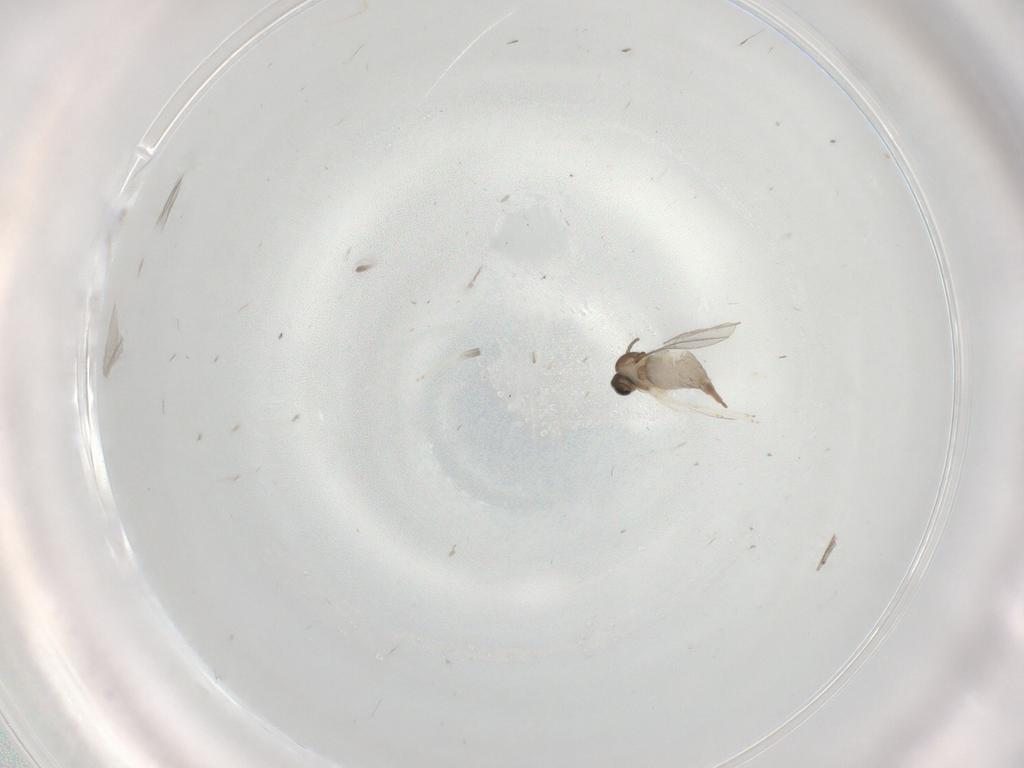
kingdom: Animalia
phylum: Arthropoda
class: Insecta
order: Diptera
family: Cecidomyiidae
